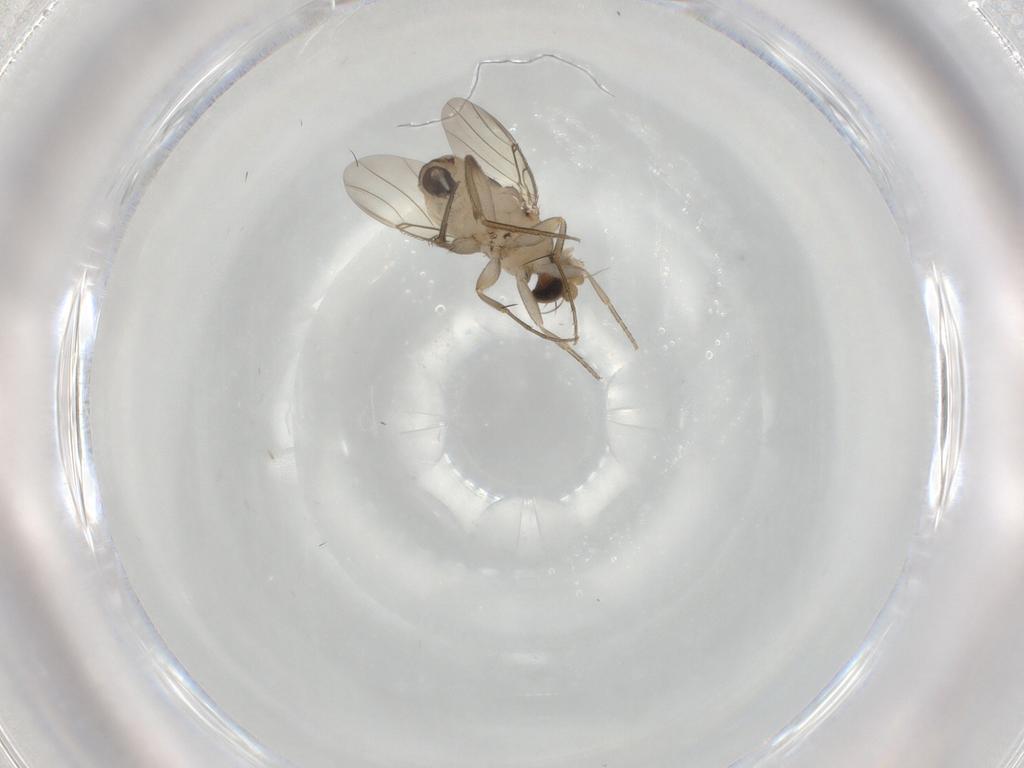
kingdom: Animalia
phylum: Arthropoda
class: Insecta
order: Diptera
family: Phoridae
